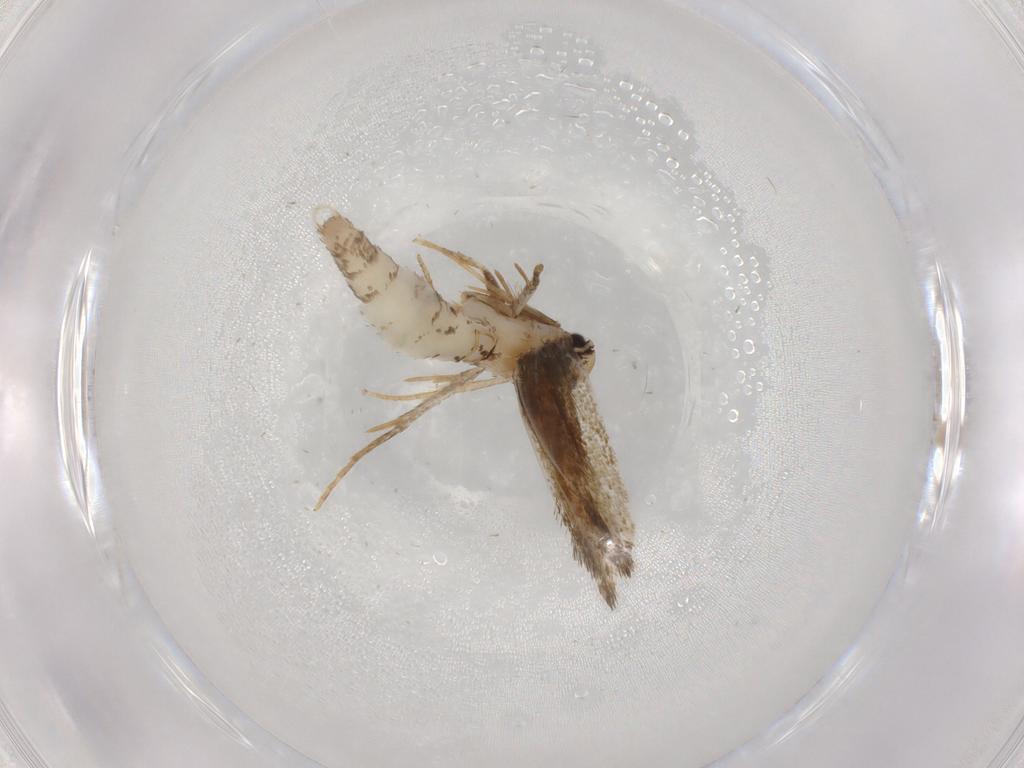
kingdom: Animalia
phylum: Arthropoda
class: Insecta
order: Lepidoptera
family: Tineidae
